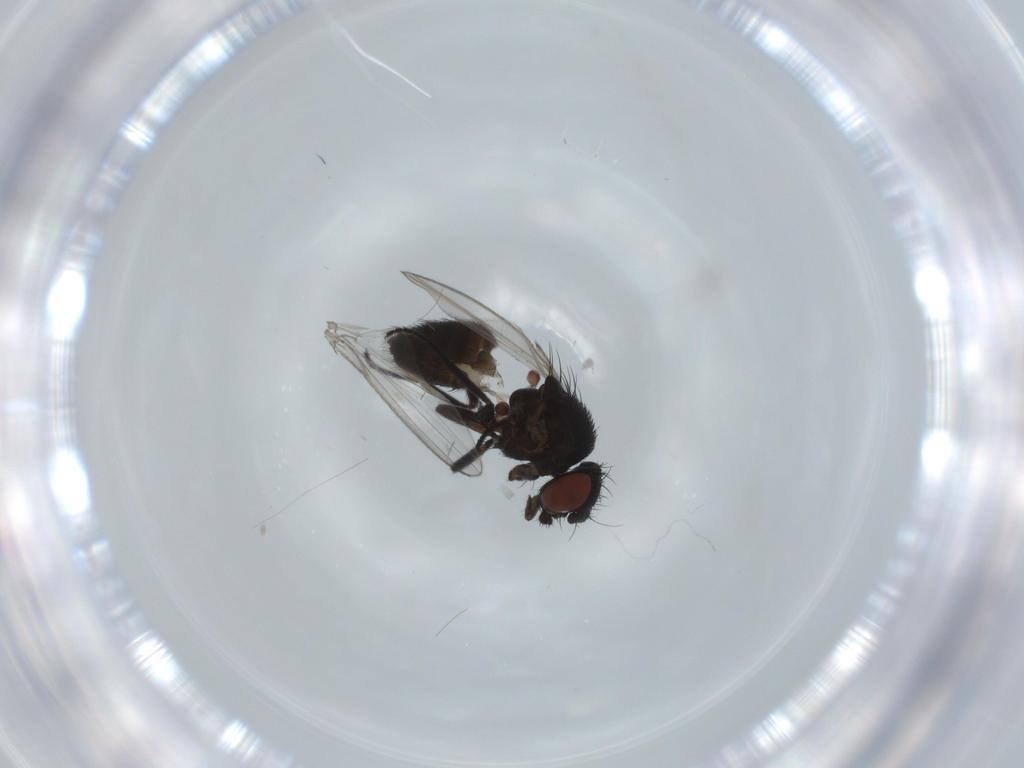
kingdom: Animalia
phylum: Arthropoda
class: Insecta
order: Diptera
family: Milichiidae
